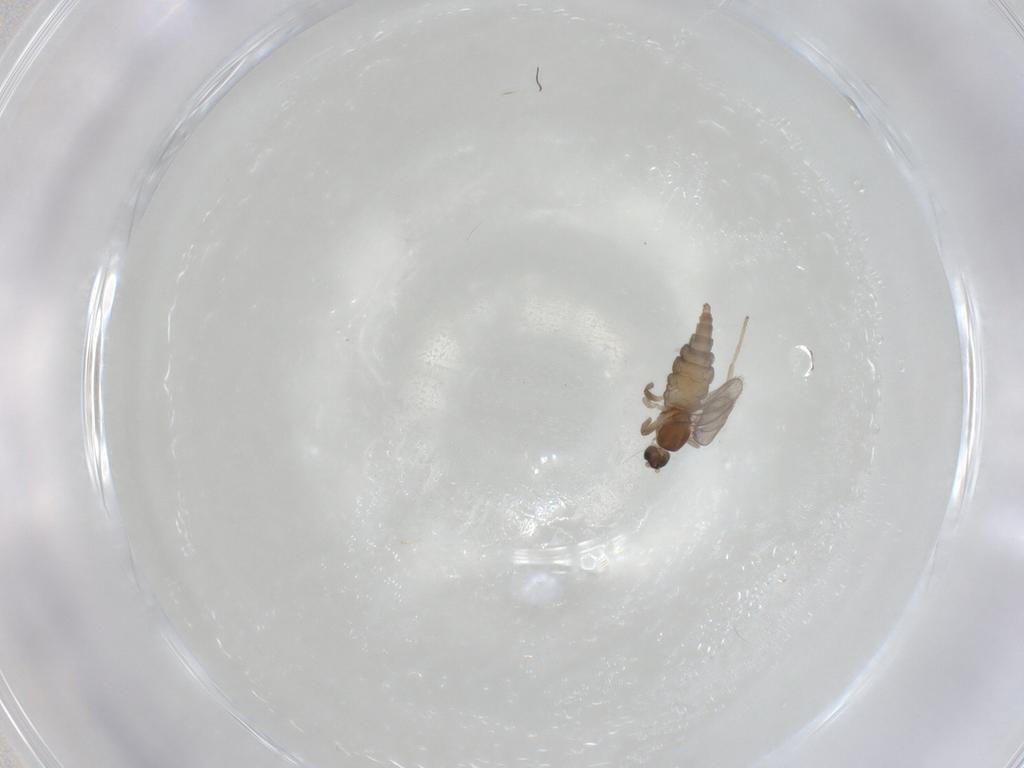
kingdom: Animalia
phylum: Arthropoda
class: Insecta
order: Diptera
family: Cecidomyiidae
